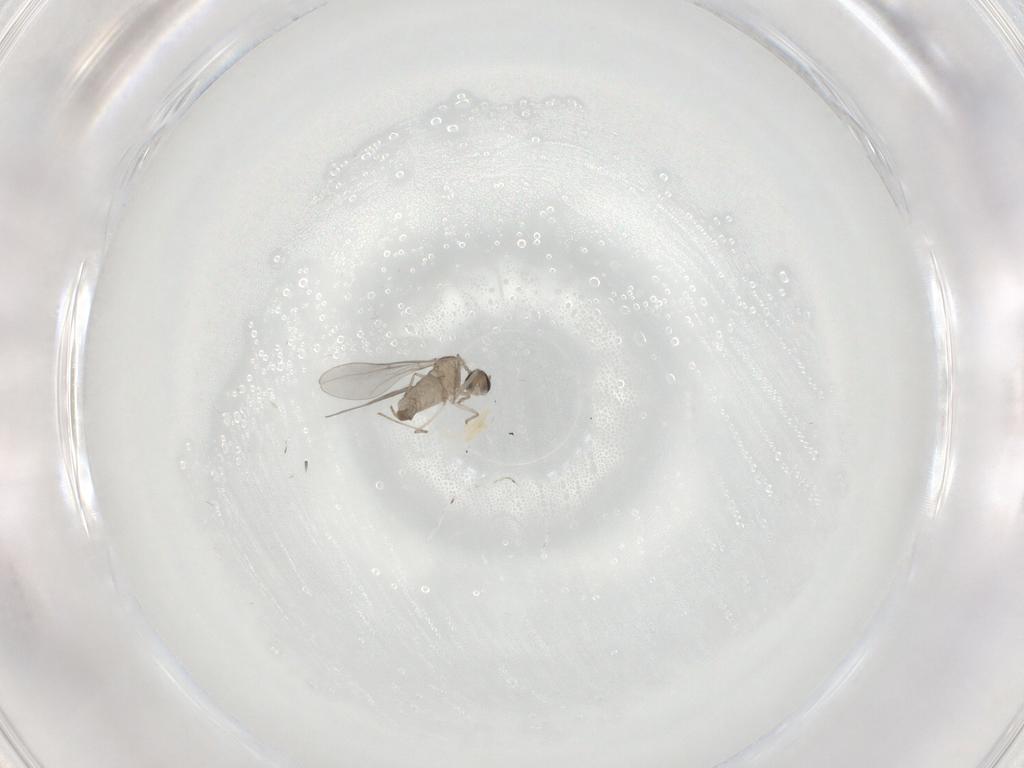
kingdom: Animalia
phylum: Arthropoda
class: Insecta
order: Diptera
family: Cecidomyiidae
